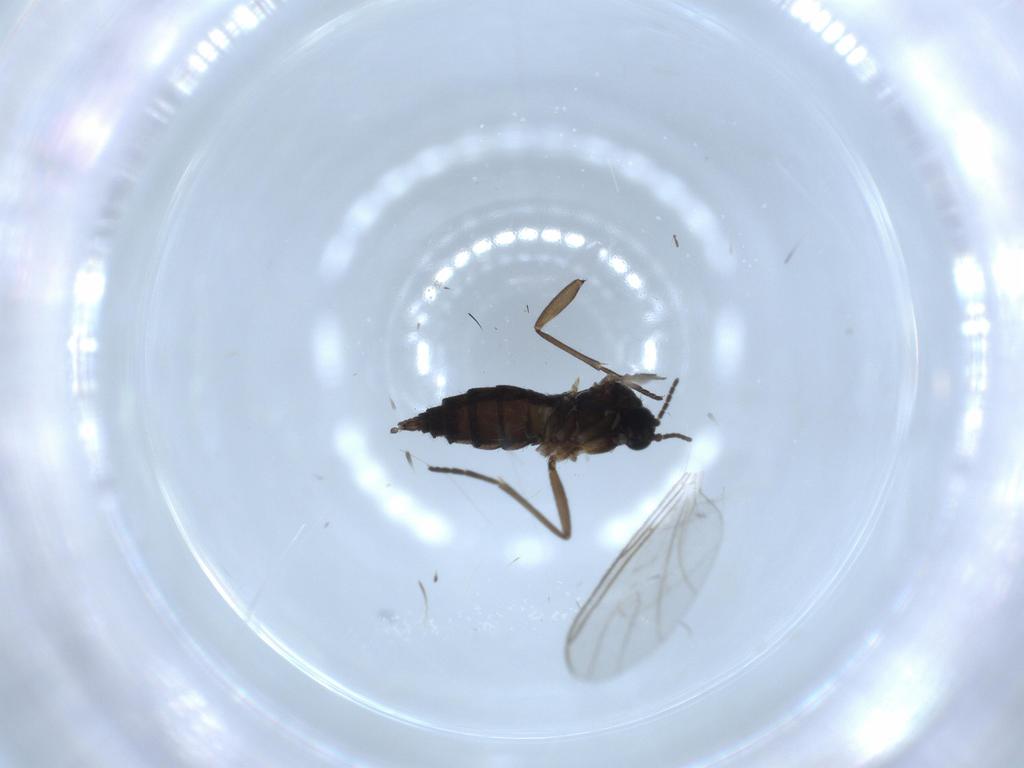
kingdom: Animalia
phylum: Arthropoda
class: Insecta
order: Diptera
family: Sciaridae
